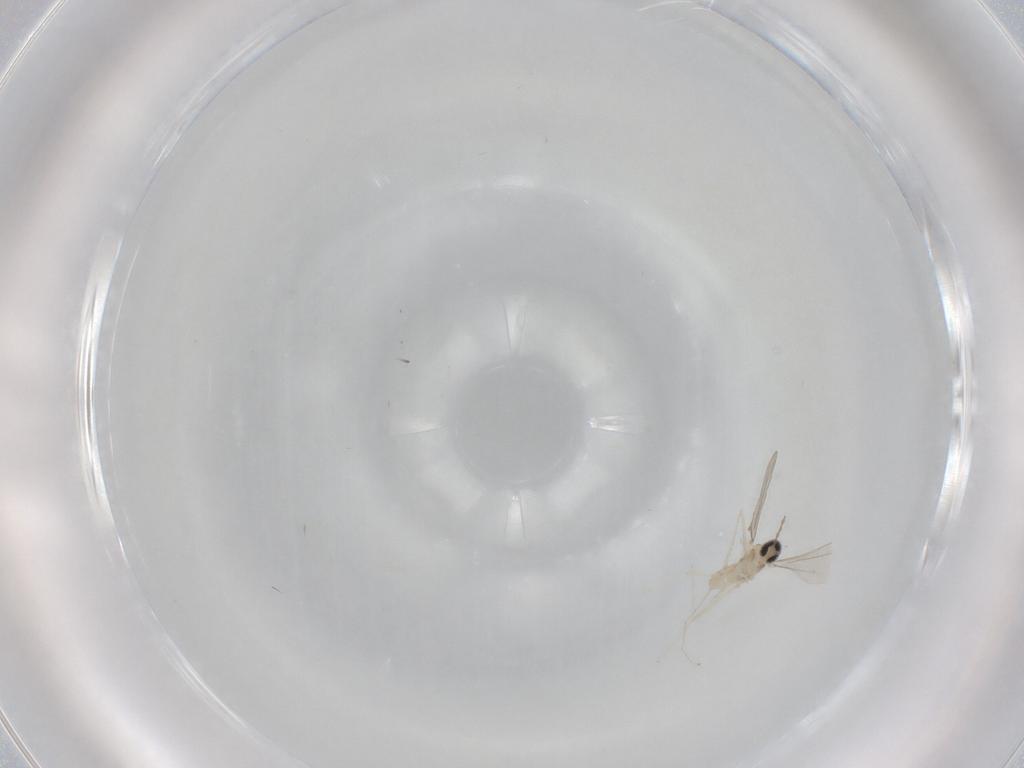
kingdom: Animalia
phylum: Arthropoda
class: Insecta
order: Diptera
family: Cecidomyiidae
